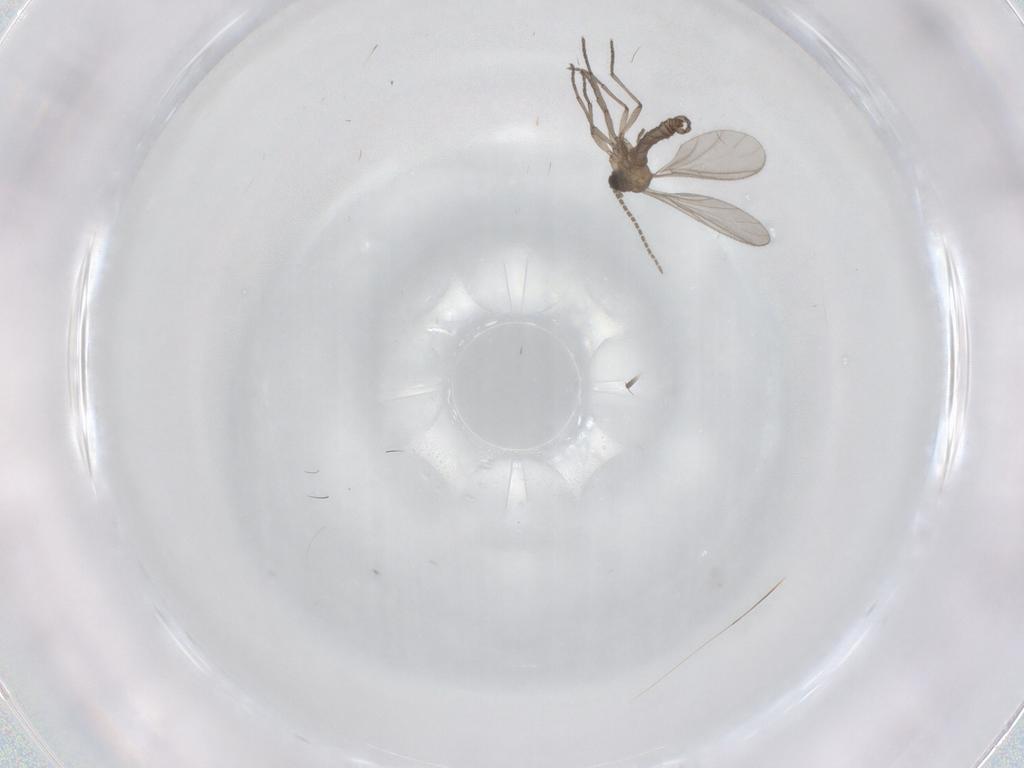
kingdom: Animalia
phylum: Arthropoda
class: Insecta
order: Diptera
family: Sciaridae
